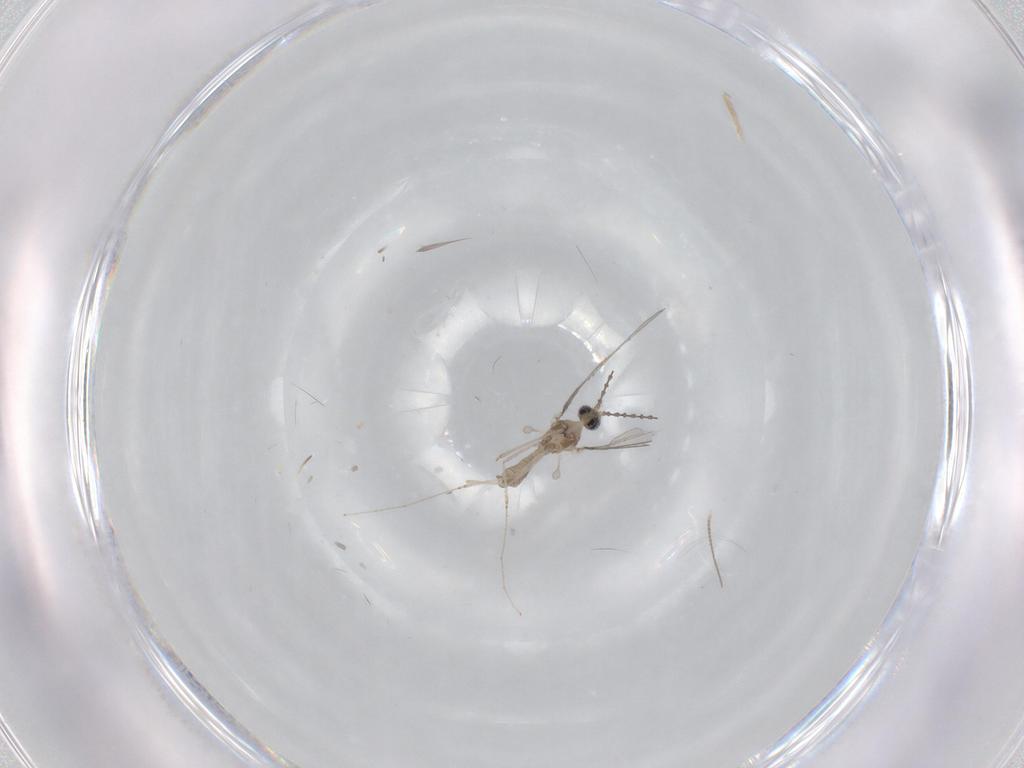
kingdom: Animalia
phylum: Arthropoda
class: Insecta
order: Diptera
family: Cecidomyiidae
